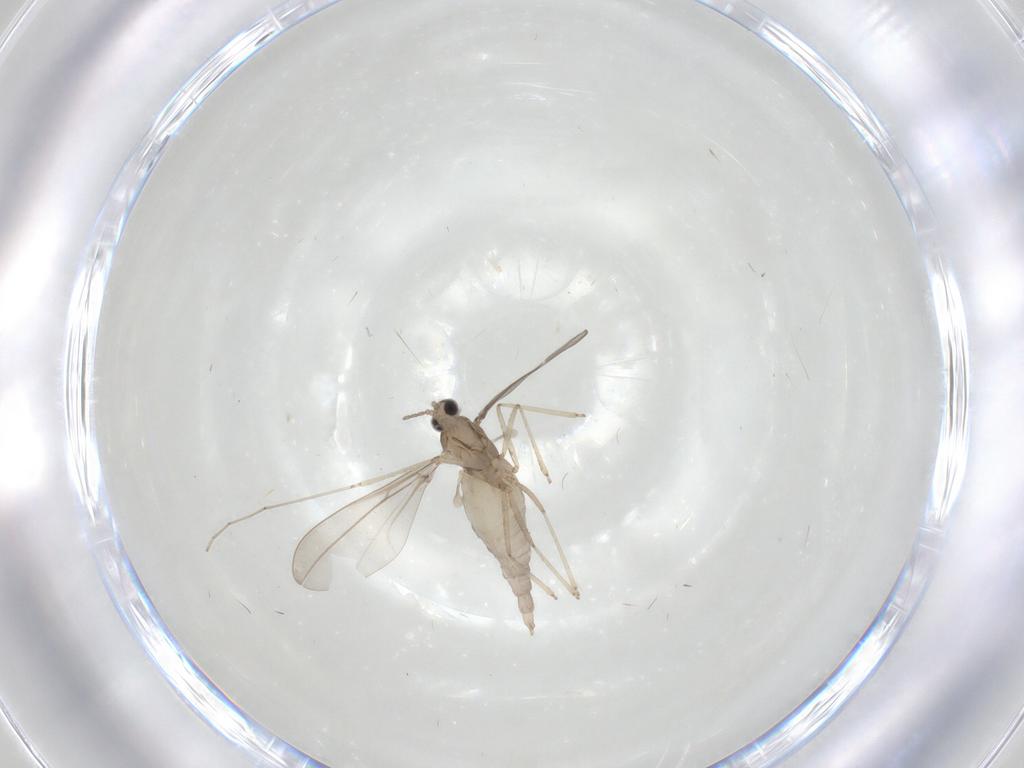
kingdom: Animalia
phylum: Arthropoda
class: Insecta
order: Diptera
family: Cecidomyiidae
